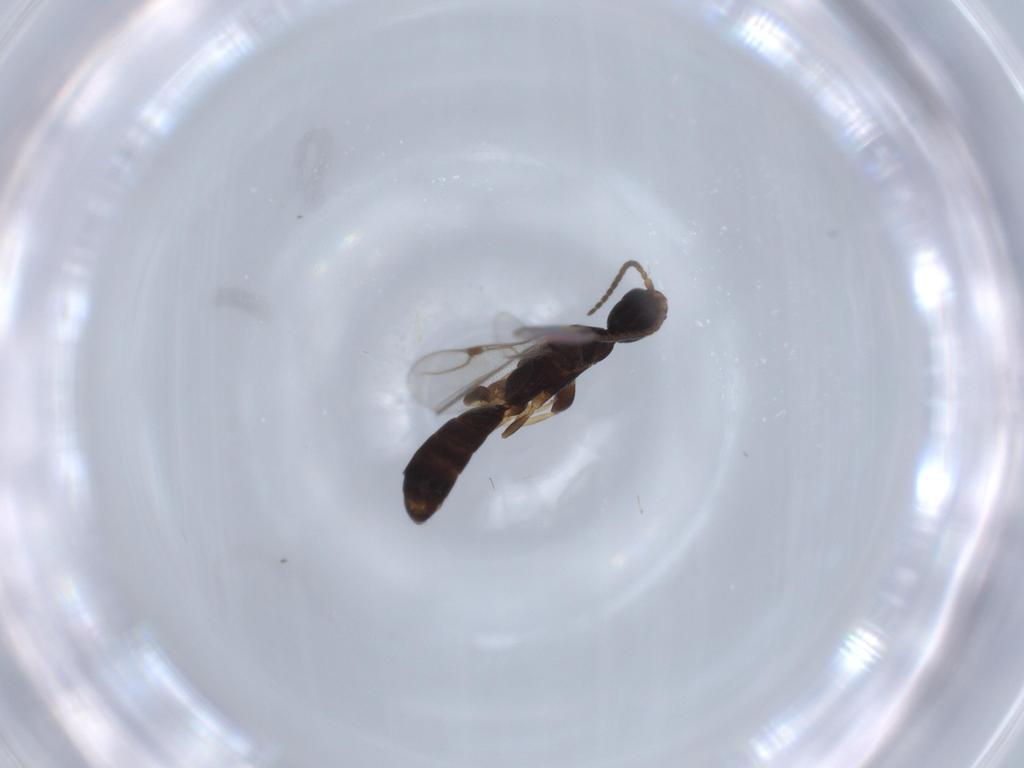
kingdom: Animalia
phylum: Arthropoda
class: Insecta
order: Hymenoptera
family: Bethylidae
